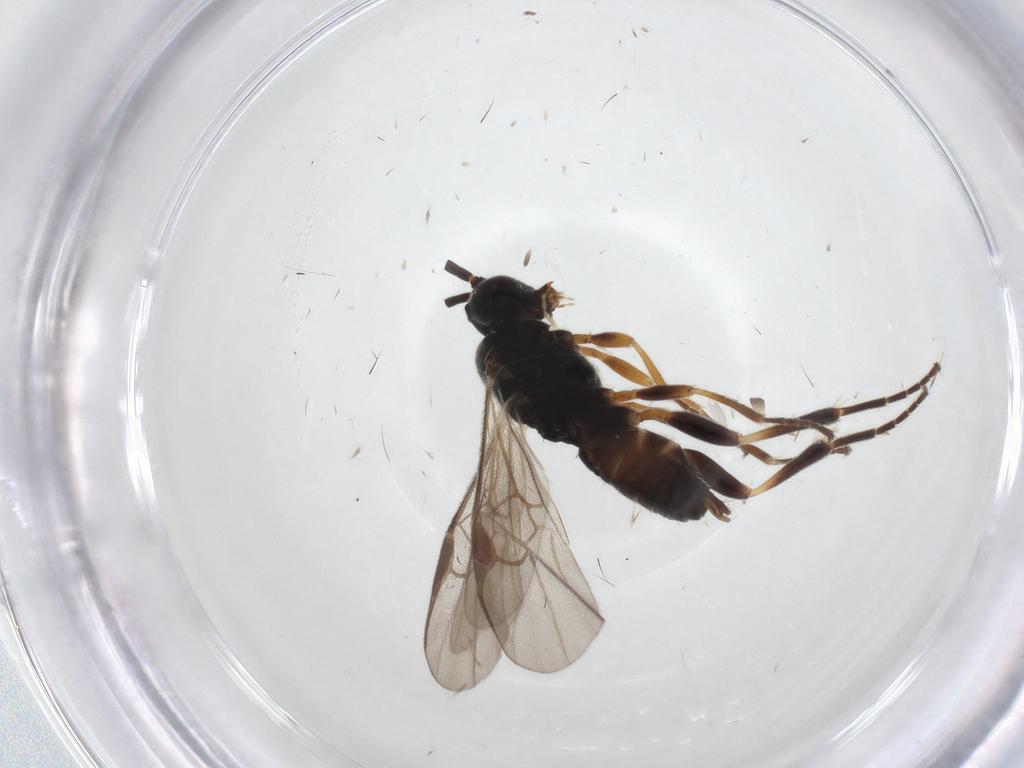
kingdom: Animalia
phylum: Arthropoda
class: Insecta
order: Hymenoptera
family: Braconidae
